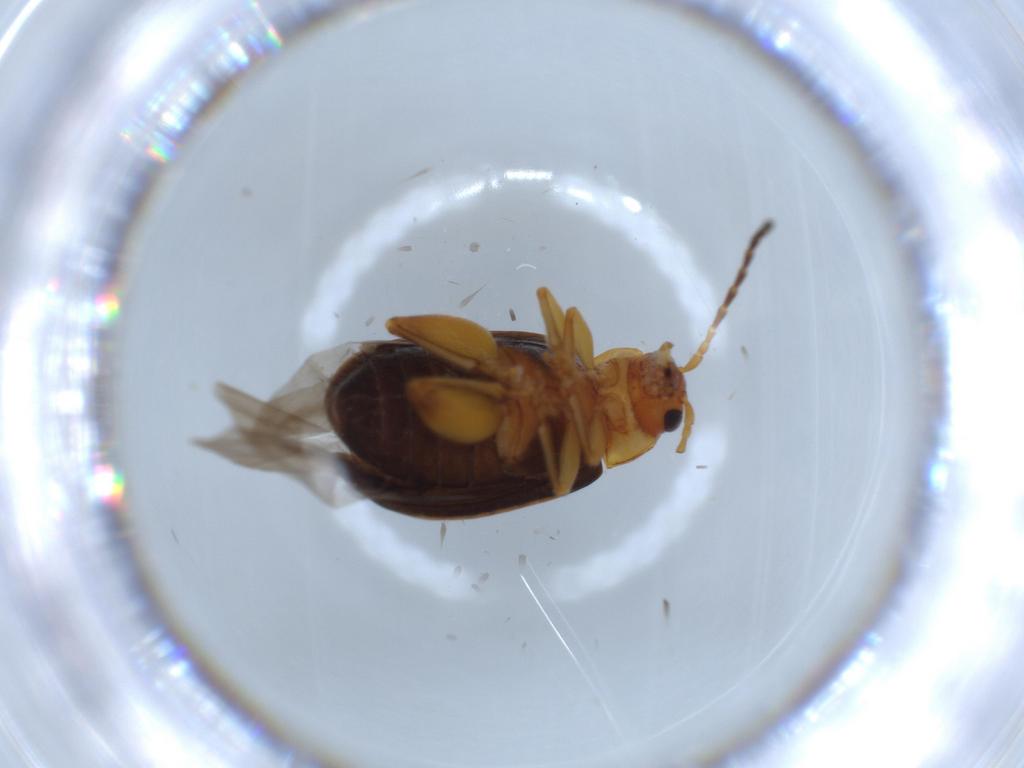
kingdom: Animalia
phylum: Arthropoda
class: Insecta
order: Coleoptera
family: Chrysomelidae
